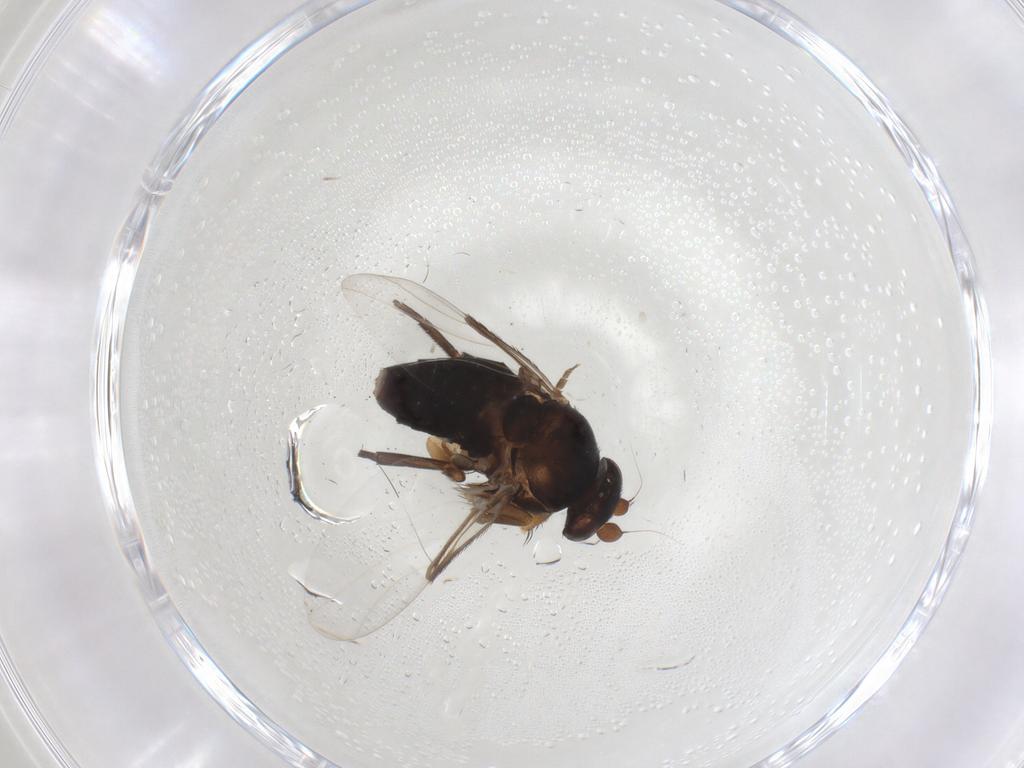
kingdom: Animalia
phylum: Arthropoda
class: Insecta
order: Diptera
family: Phoridae
